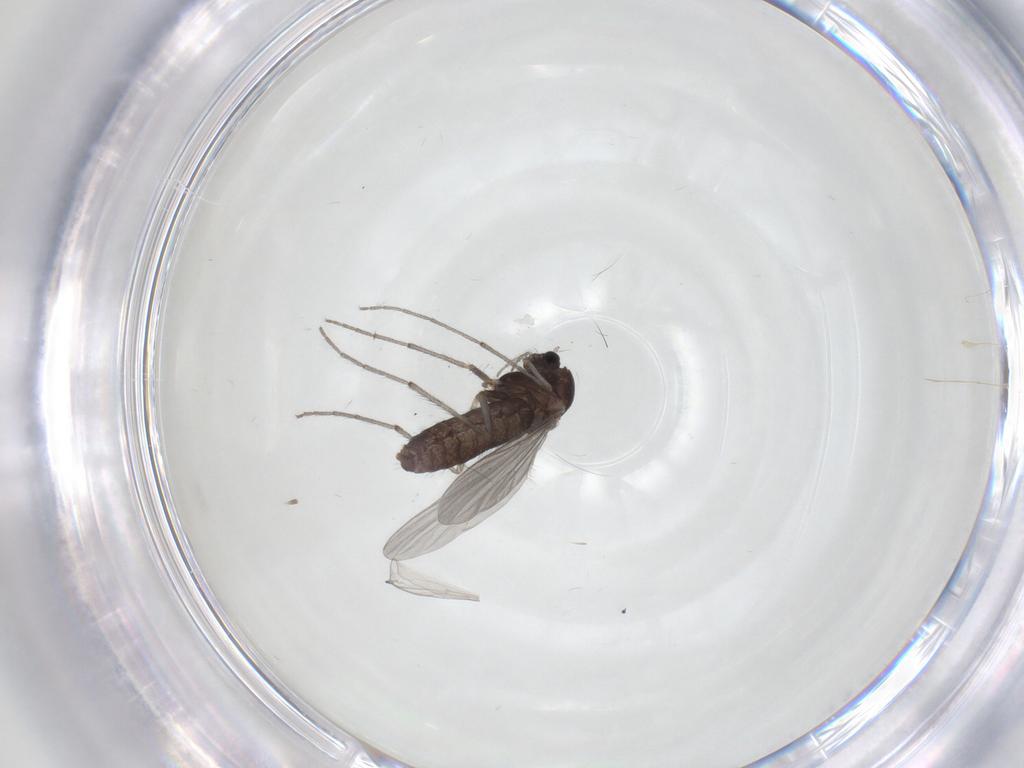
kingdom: Animalia
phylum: Arthropoda
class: Insecta
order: Diptera
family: Chironomidae
